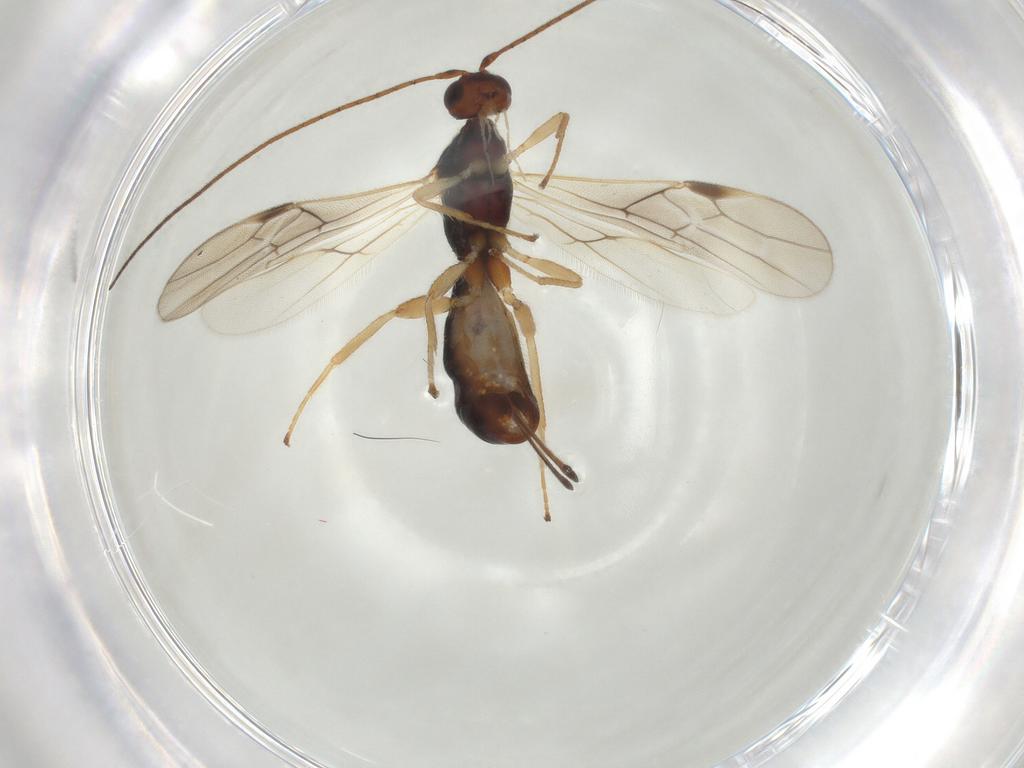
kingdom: Animalia
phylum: Arthropoda
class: Insecta
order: Hymenoptera
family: Braconidae
